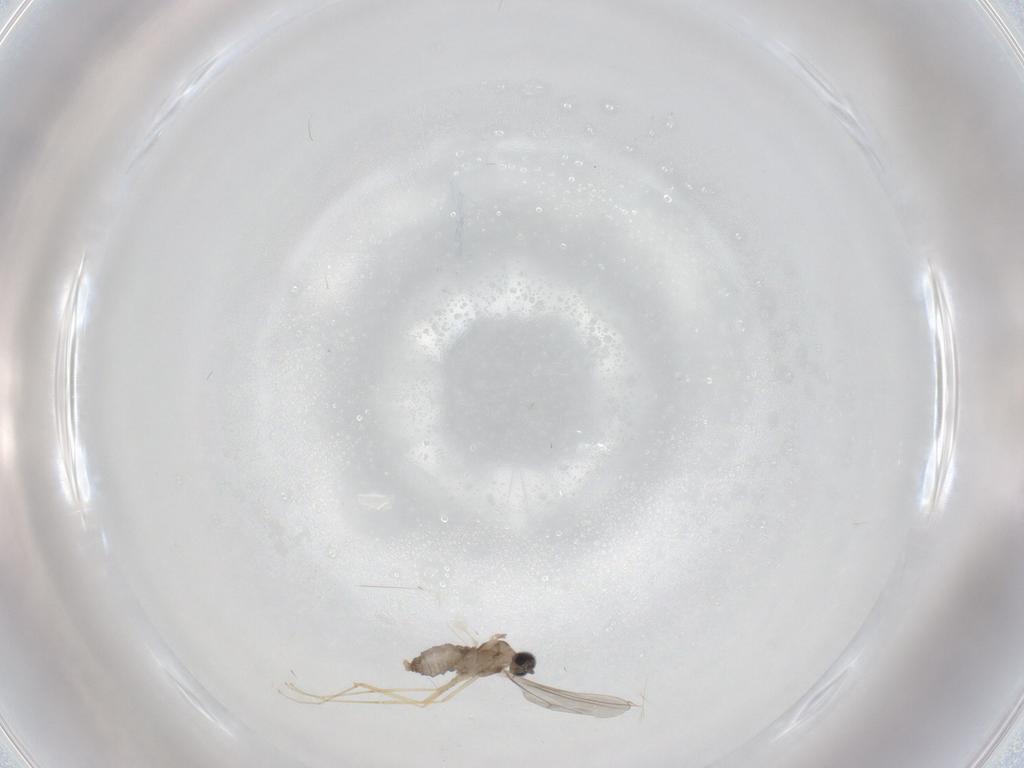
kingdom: Animalia
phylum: Arthropoda
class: Insecta
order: Diptera
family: Cecidomyiidae
